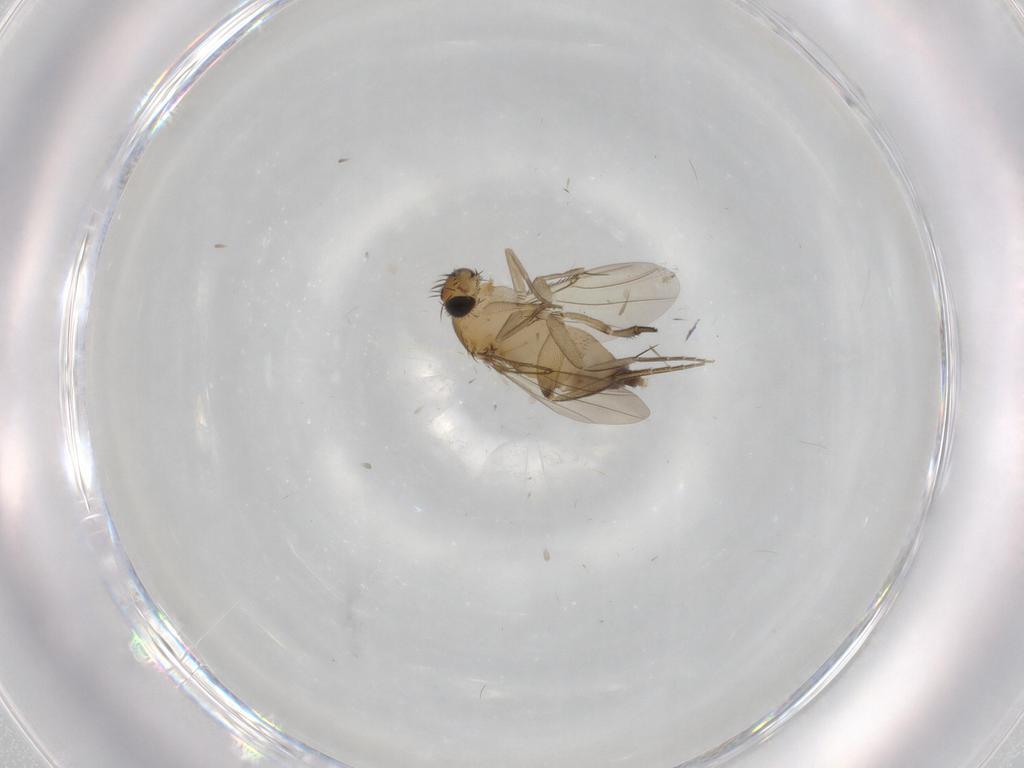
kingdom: Animalia
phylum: Arthropoda
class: Insecta
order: Diptera
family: Phoridae
